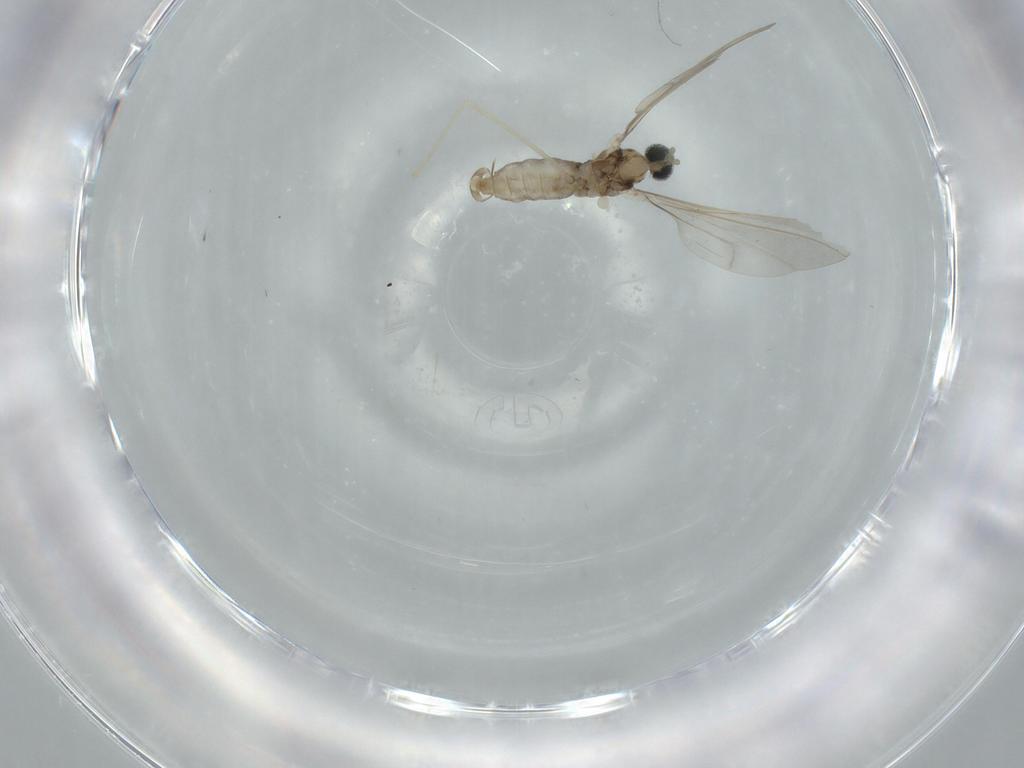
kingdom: Animalia
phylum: Arthropoda
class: Insecta
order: Diptera
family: Cecidomyiidae
